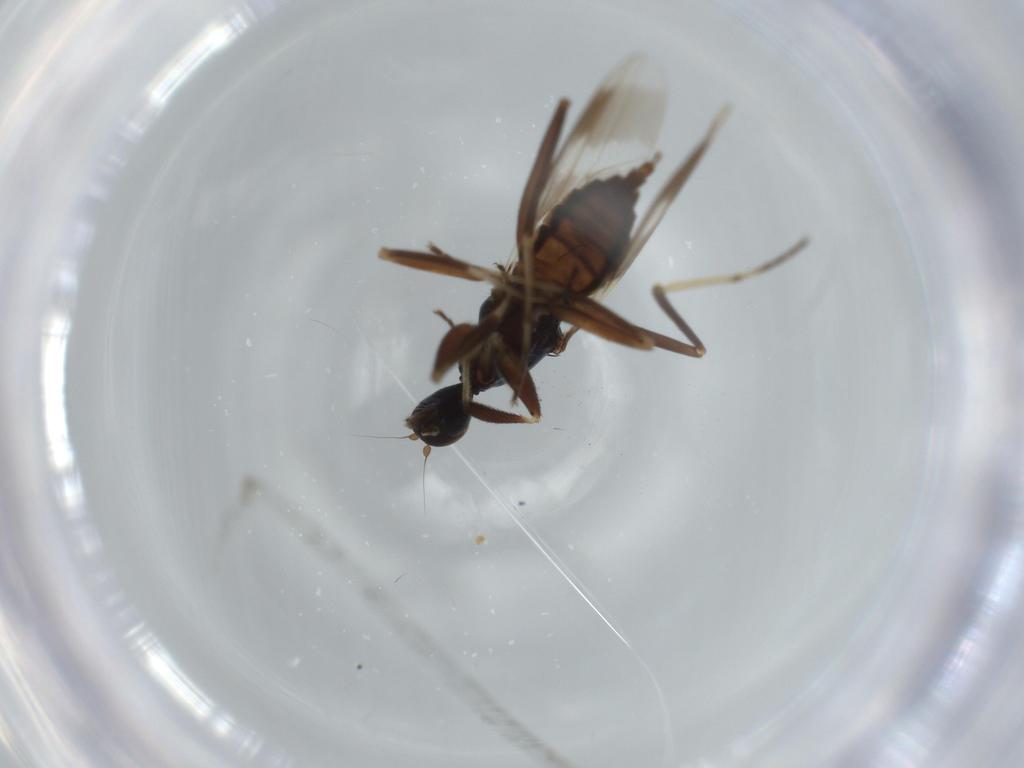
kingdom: Animalia
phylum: Arthropoda
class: Insecta
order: Diptera
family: Hybotidae
